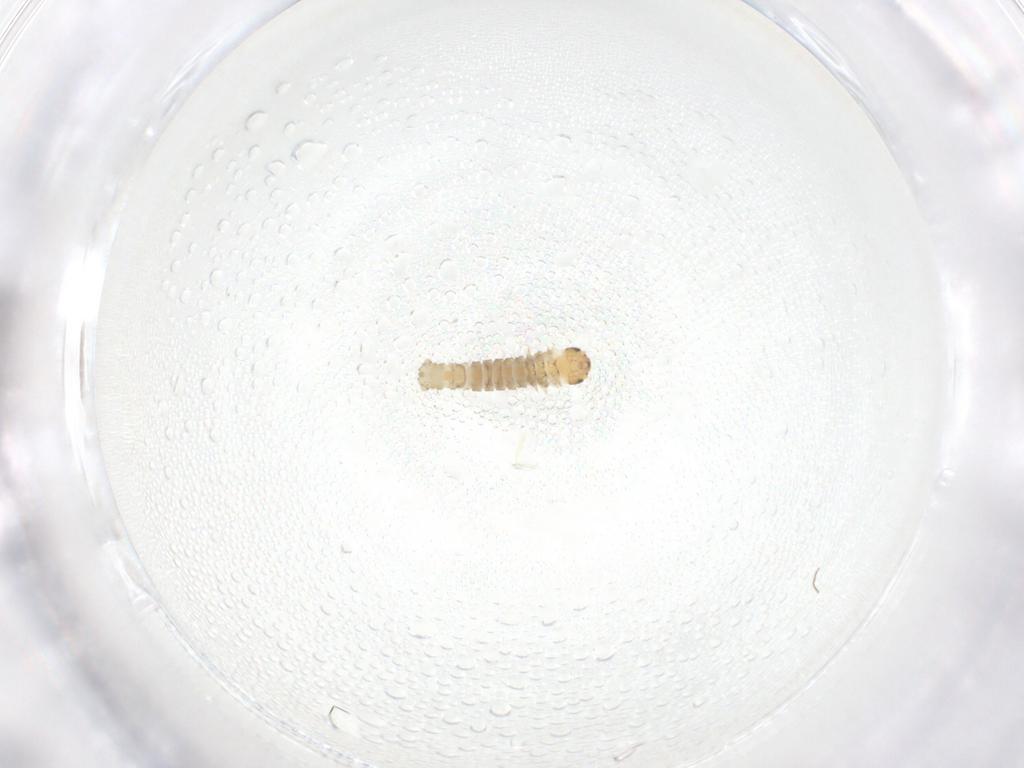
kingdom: Animalia
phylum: Arthropoda
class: Insecta
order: Lepidoptera
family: Geometridae
